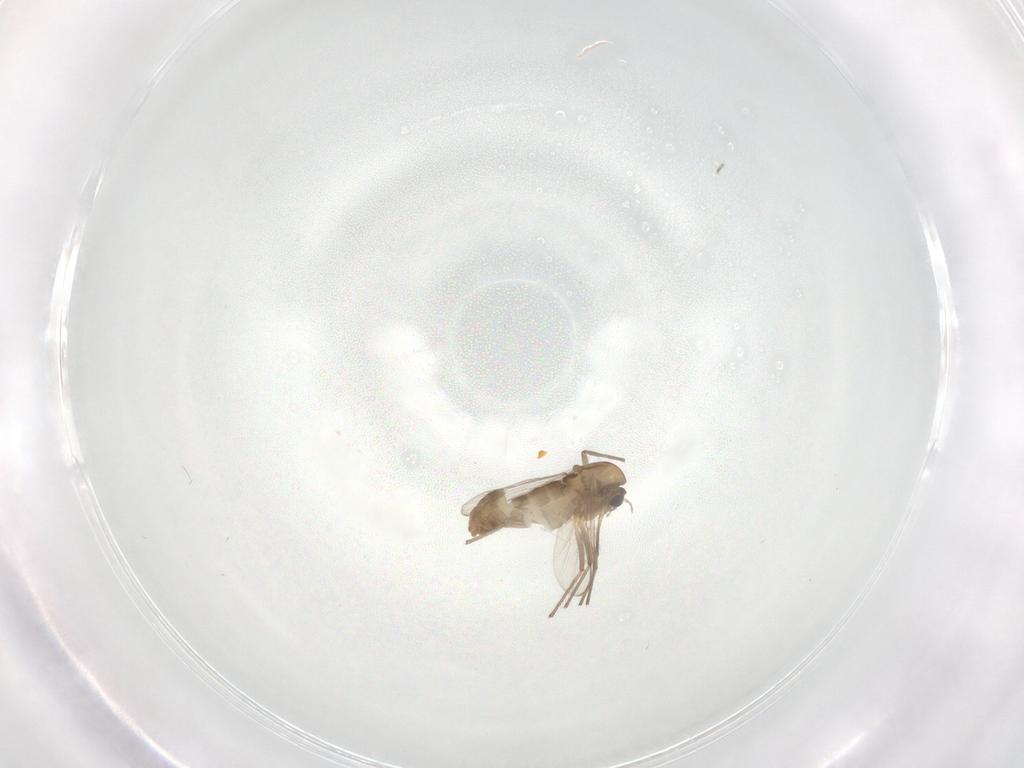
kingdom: Animalia
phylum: Arthropoda
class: Insecta
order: Diptera
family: Chironomidae
